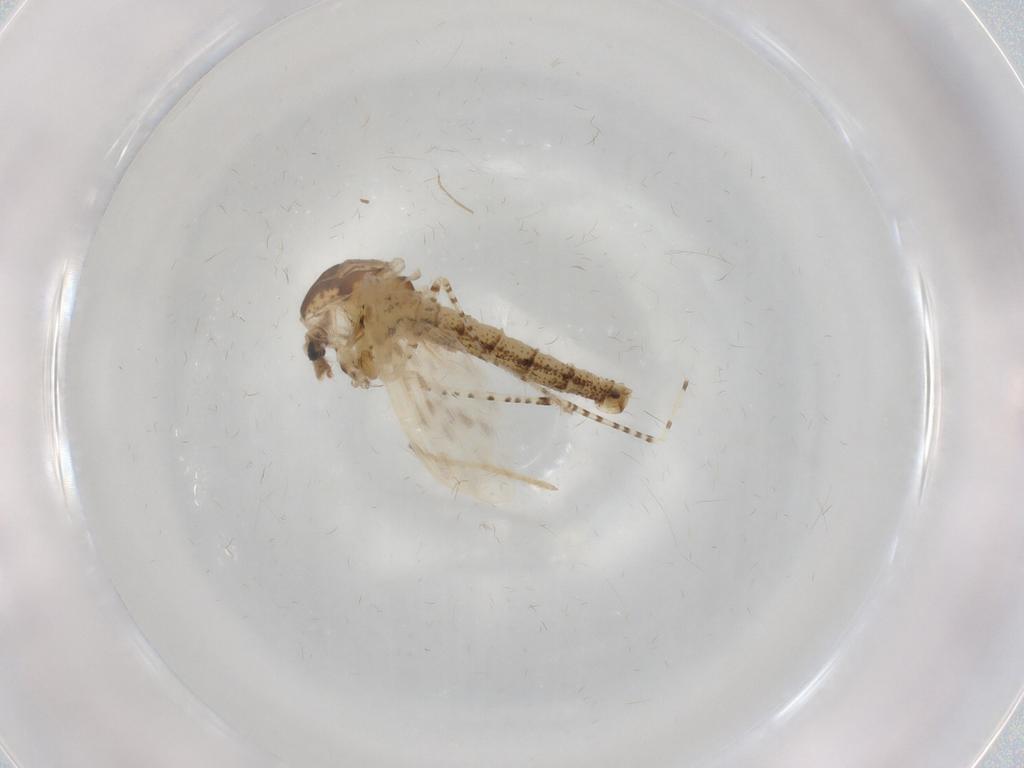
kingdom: Animalia
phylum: Arthropoda
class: Insecta
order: Diptera
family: Chaoboridae
